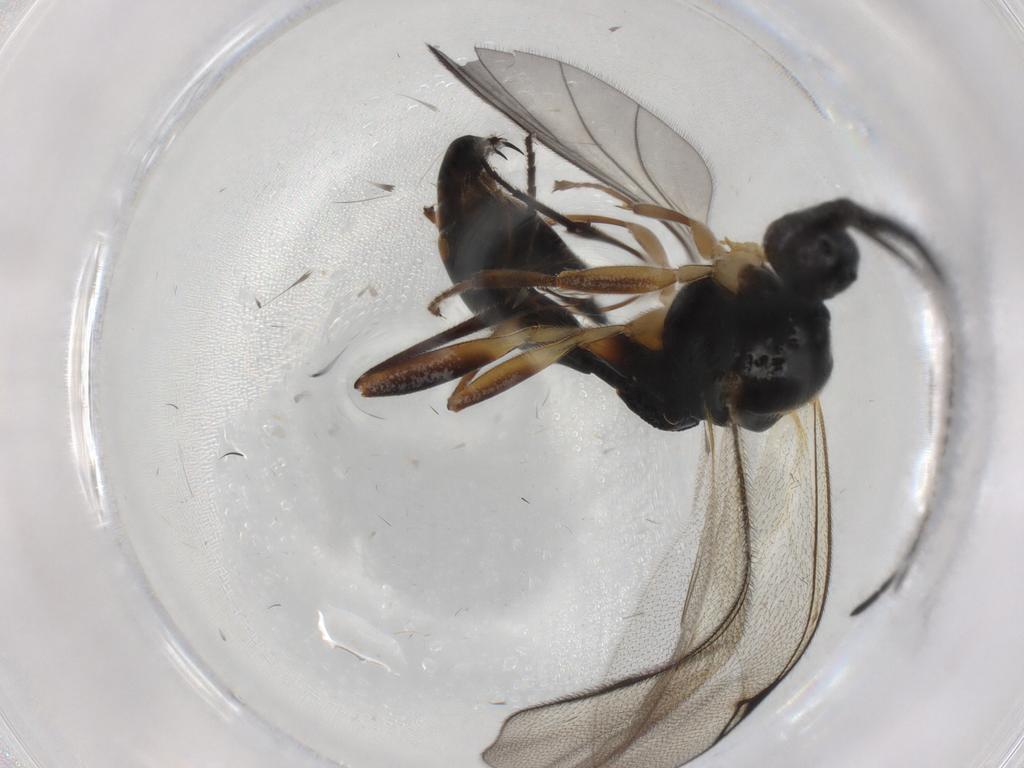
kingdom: Animalia
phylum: Arthropoda
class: Insecta
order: Hymenoptera
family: Proctotrupidae
